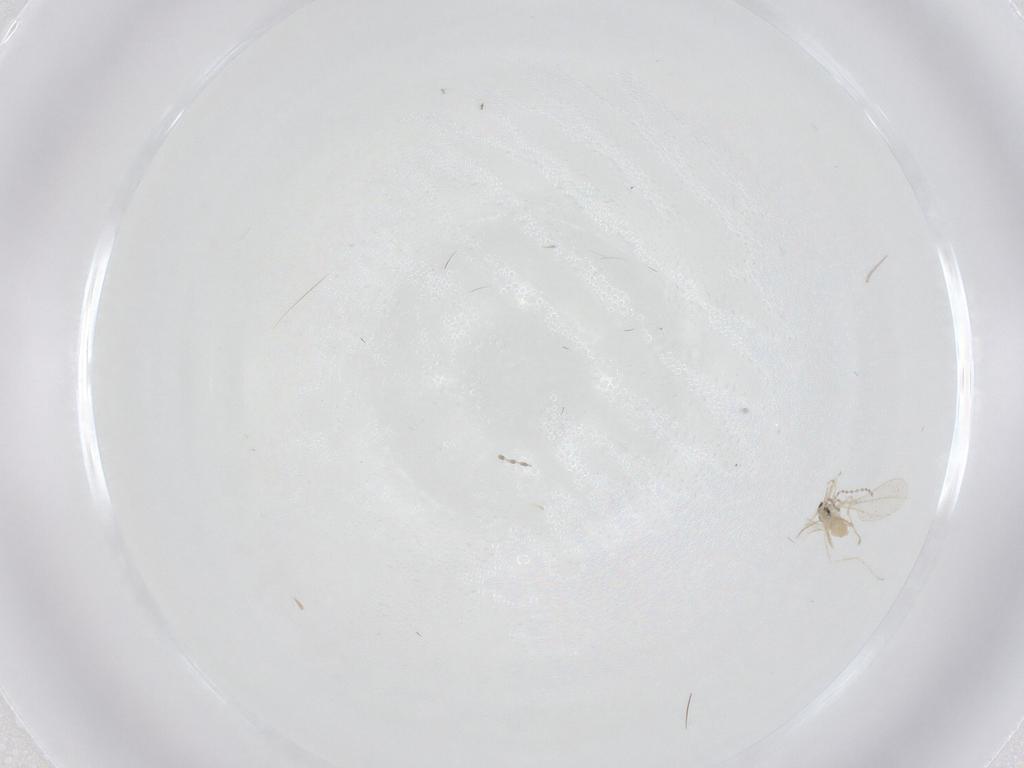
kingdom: Animalia
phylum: Arthropoda
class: Insecta
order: Diptera
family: Cecidomyiidae
